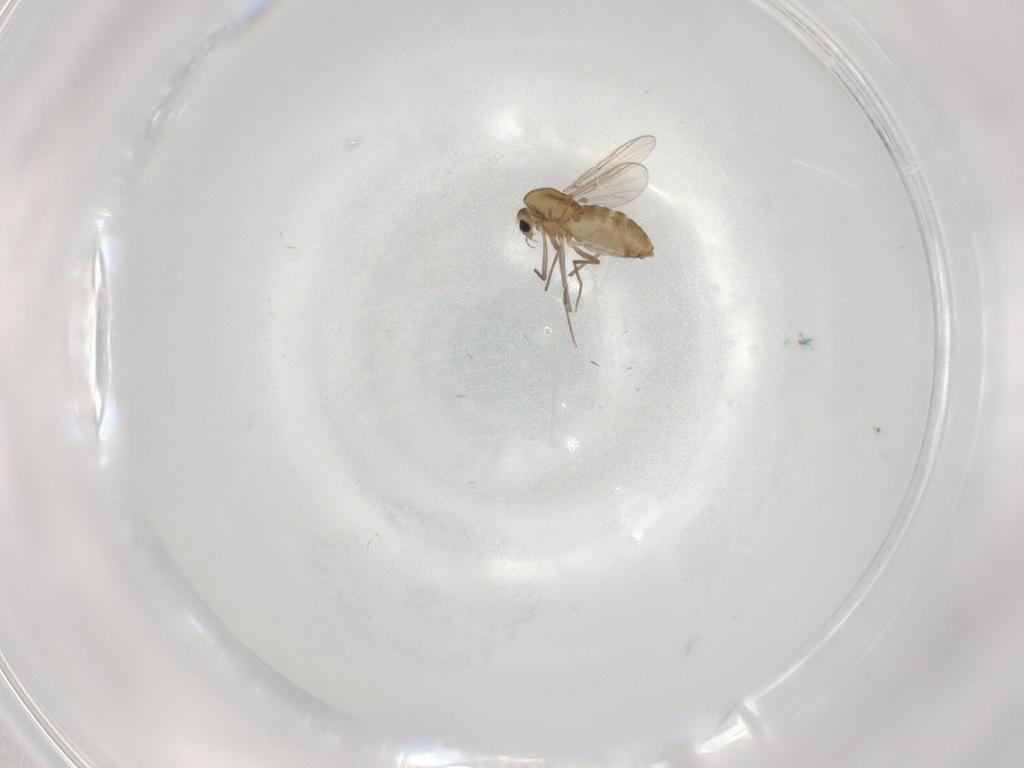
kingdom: Animalia
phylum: Arthropoda
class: Insecta
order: Diptera
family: Chironomidae
